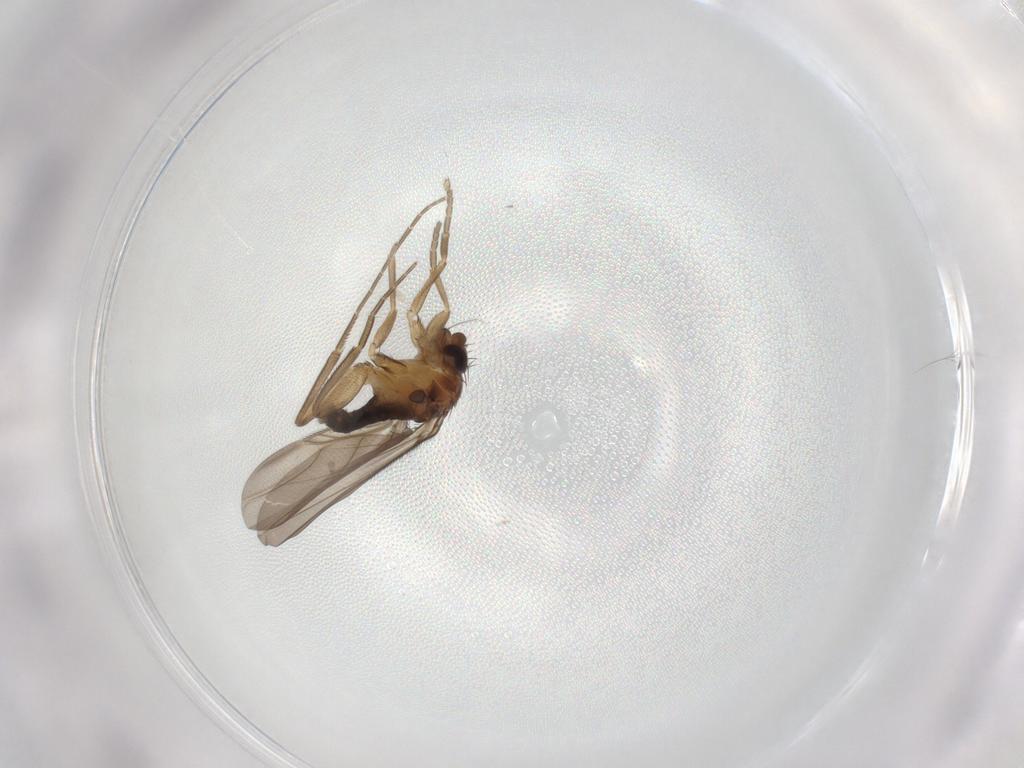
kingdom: Animalia
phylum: Arthropoda
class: Insecta
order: Diptera
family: Phoridae
